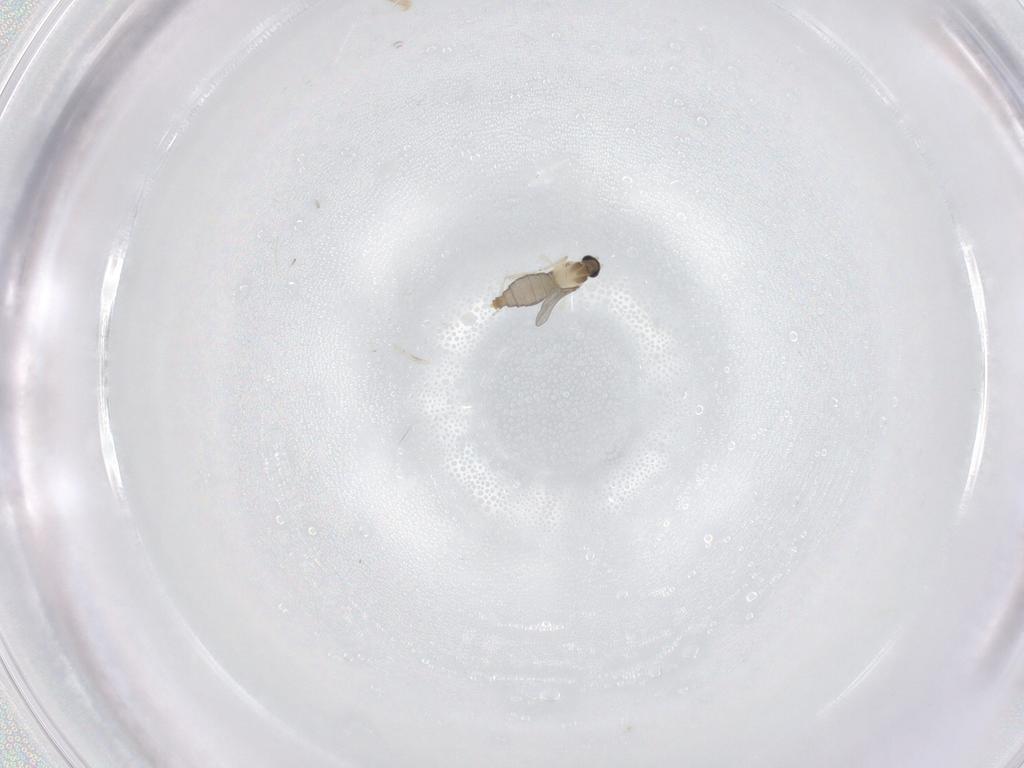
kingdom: Animalia
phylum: Arthropoda
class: Insecta
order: Diptera
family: Cecidomyiidae
